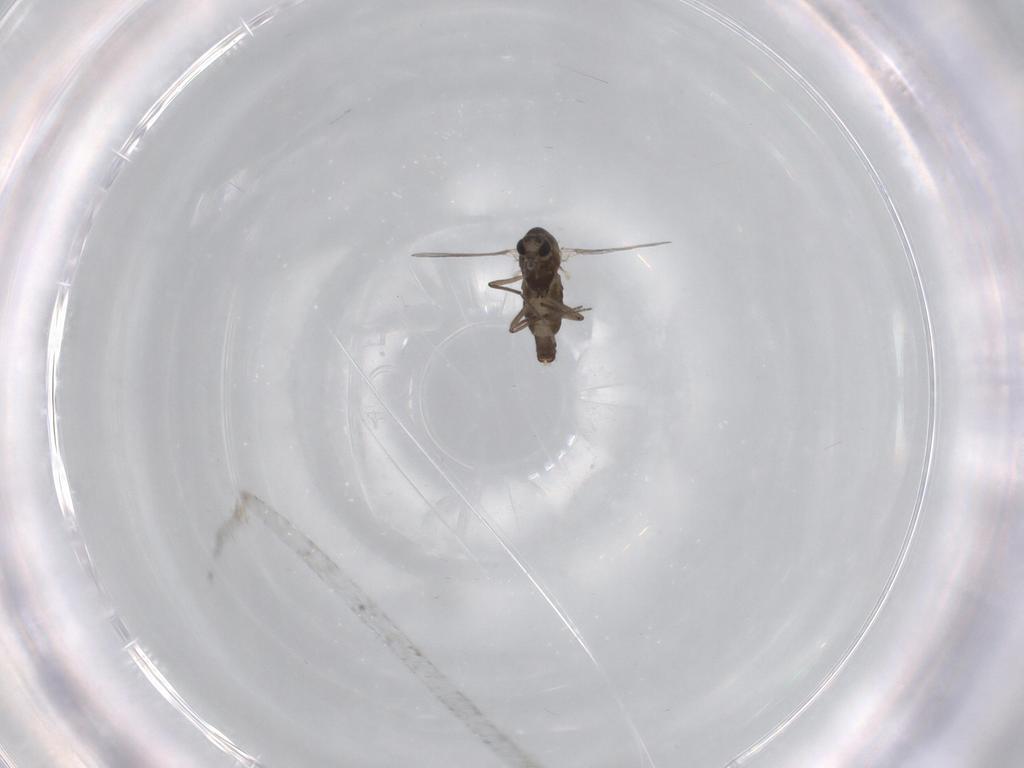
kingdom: Animalia
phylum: Arthropoda
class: Insecta
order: Diptera
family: Chironomidae
